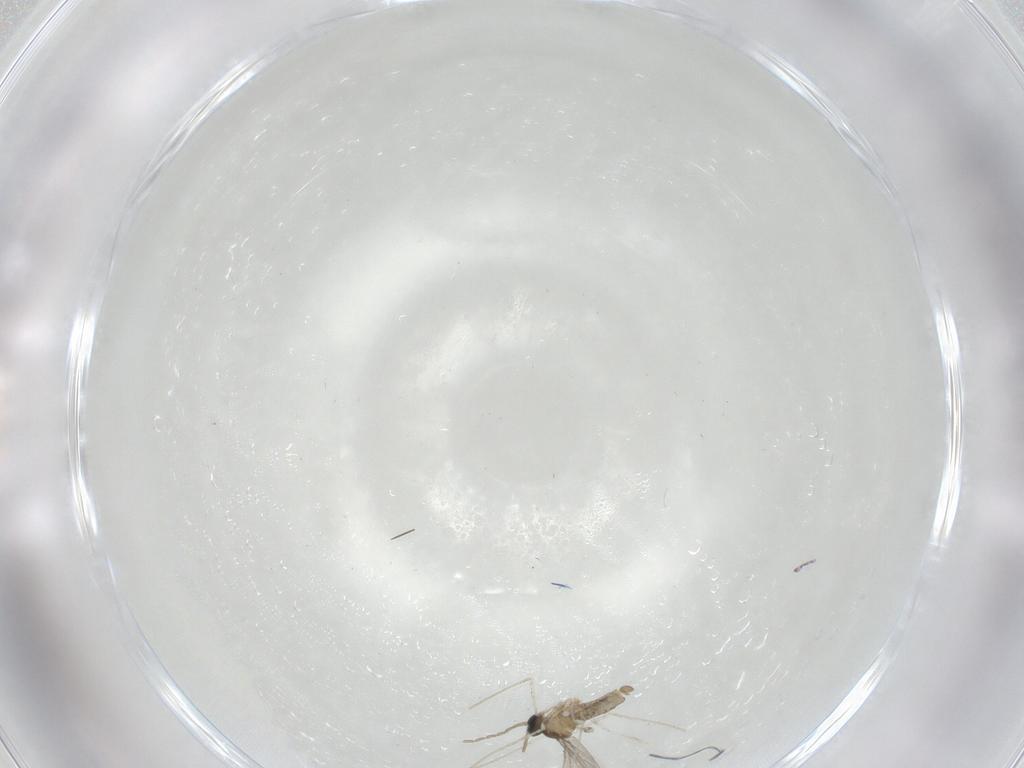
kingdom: Animalia
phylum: Arthropoda
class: Insecta
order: Diptera
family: Cecidomyiidae
